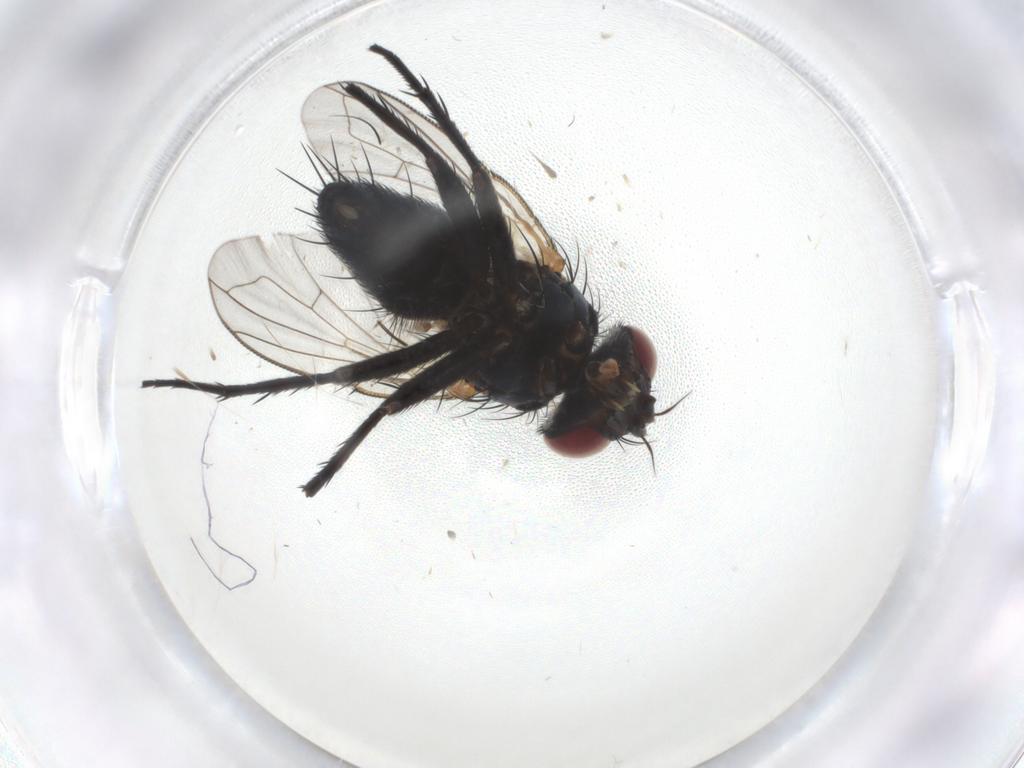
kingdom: Animalia
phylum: Arthropoda
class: Insecta
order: Diptera
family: Tachinidae
